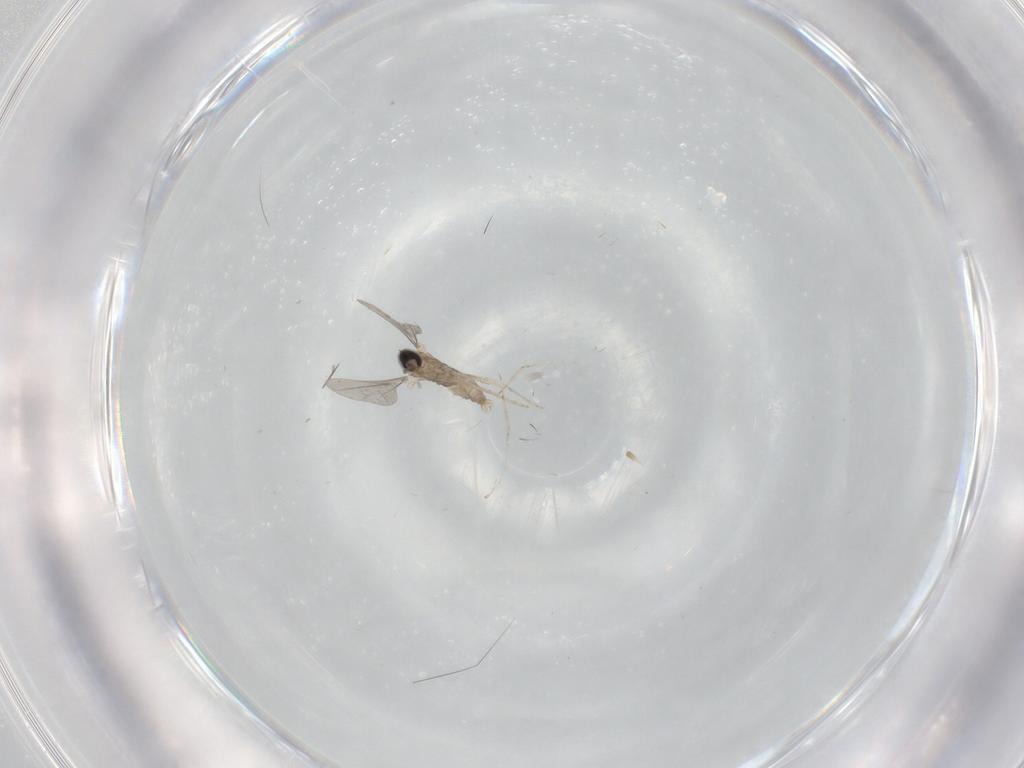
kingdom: Animalia
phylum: Arthropoda
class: Insecta
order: Diptera
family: Cecidomyiidae
